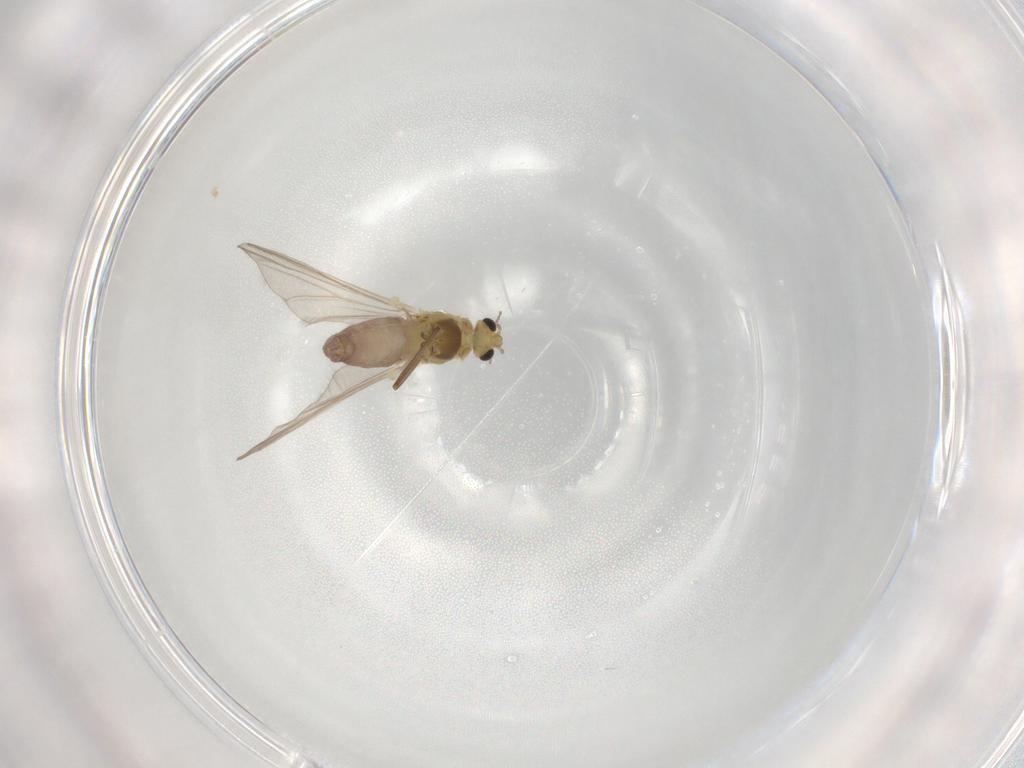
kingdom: Animalia
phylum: Arthropoda
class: Insecta
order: Diptera
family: Chironomidae
